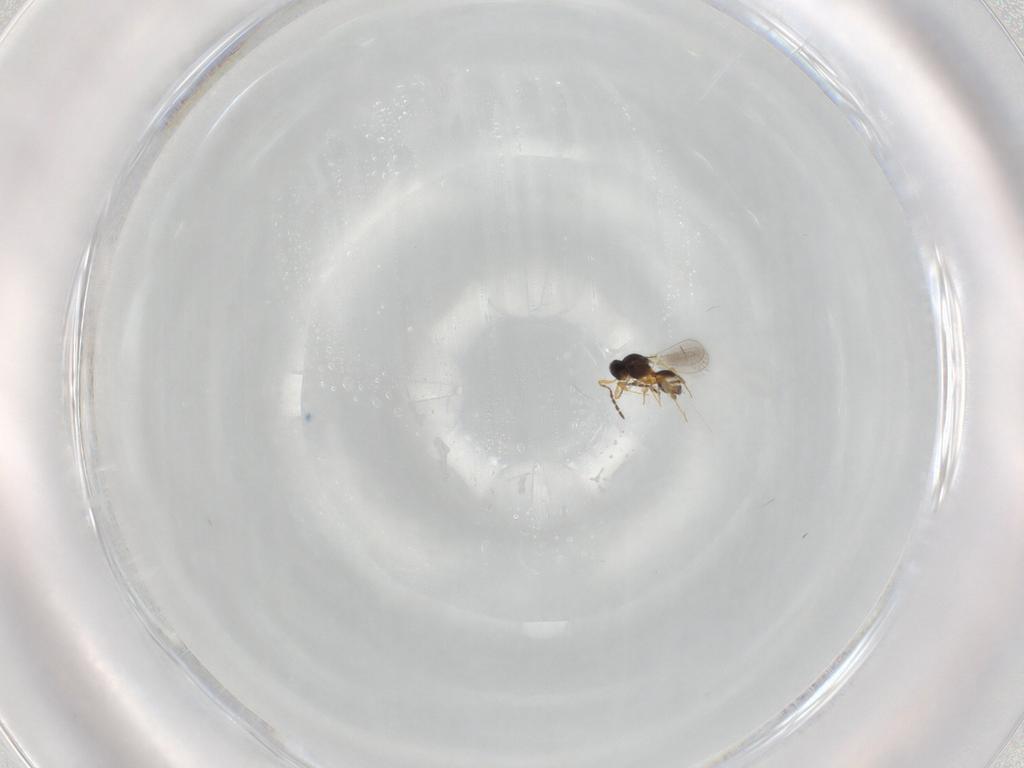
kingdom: Animalia
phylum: Arthropoda
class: Insecta
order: Hymenoptera
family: Platygastridae
